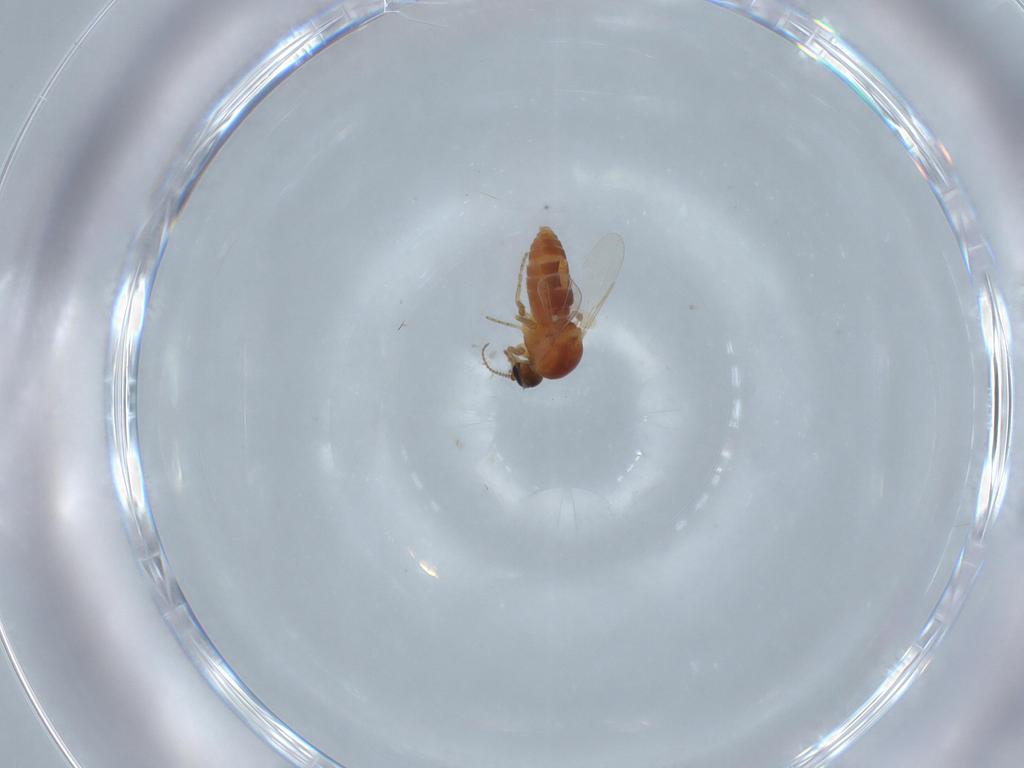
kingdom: Animalia
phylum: Arthropoda
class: Insecta
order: Diptera
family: Ceratopogonidae
